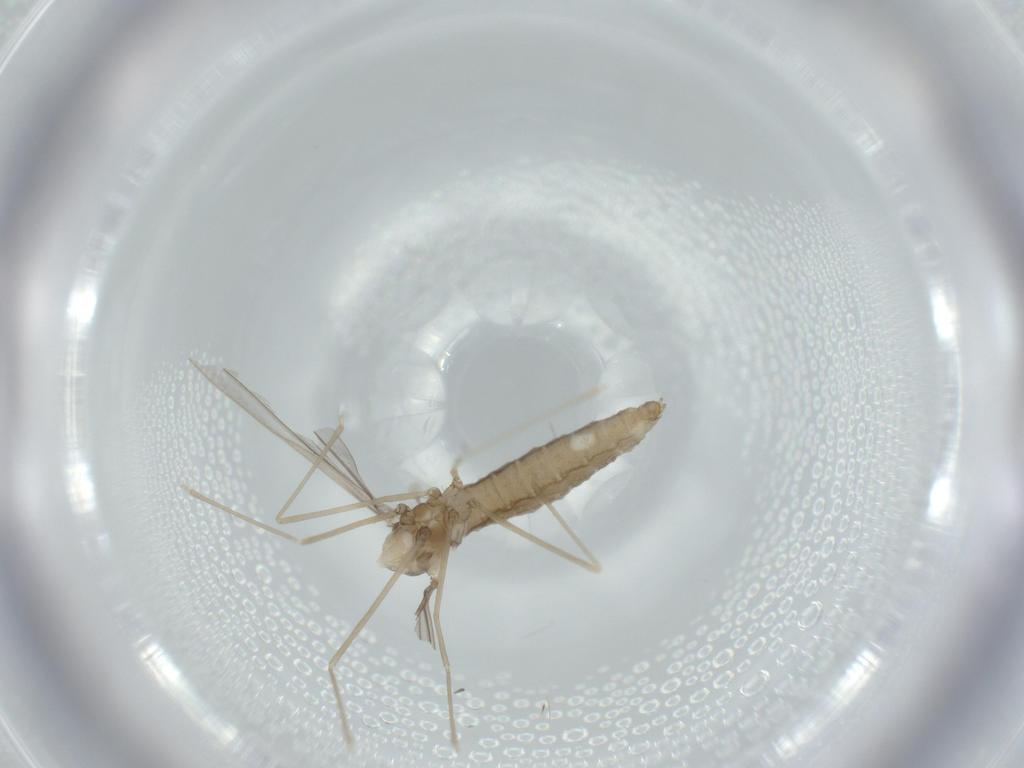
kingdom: Animalia
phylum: Arthropoda
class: Insecta
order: Diptera
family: Cecidomyiidae
